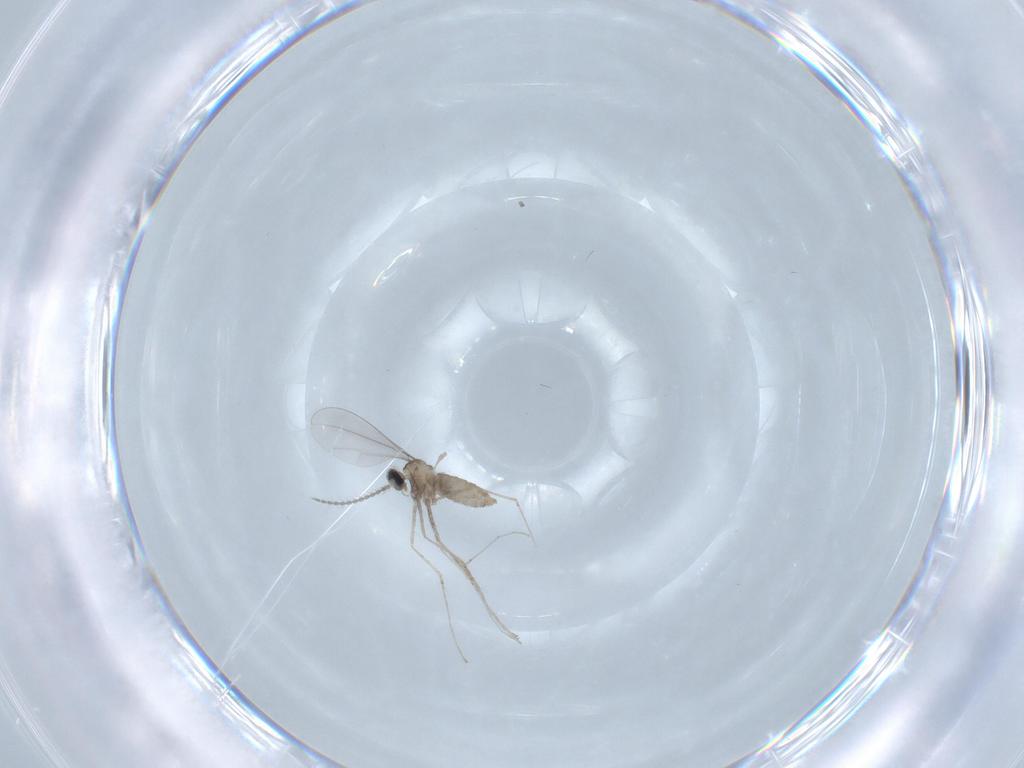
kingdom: Animalia
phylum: Arthropoda
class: Insecta
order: Diptera
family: Cecidomyiidae
